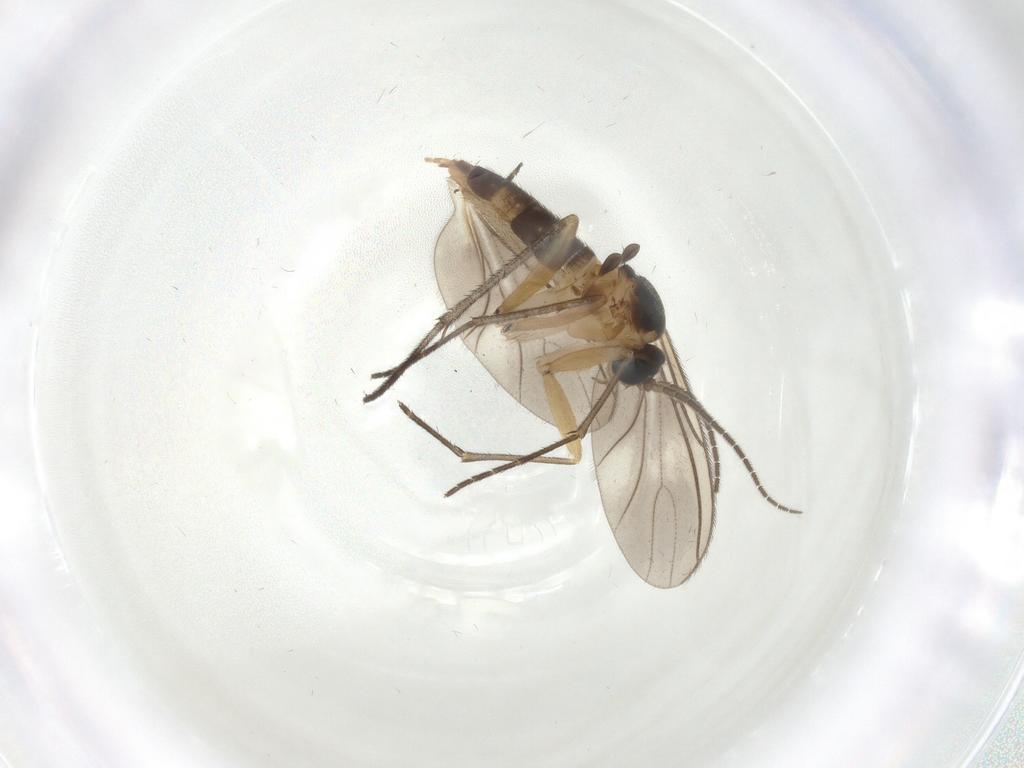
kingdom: Animalia
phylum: Arthropoda
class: Insecta
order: Diptera
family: Sciaridae
